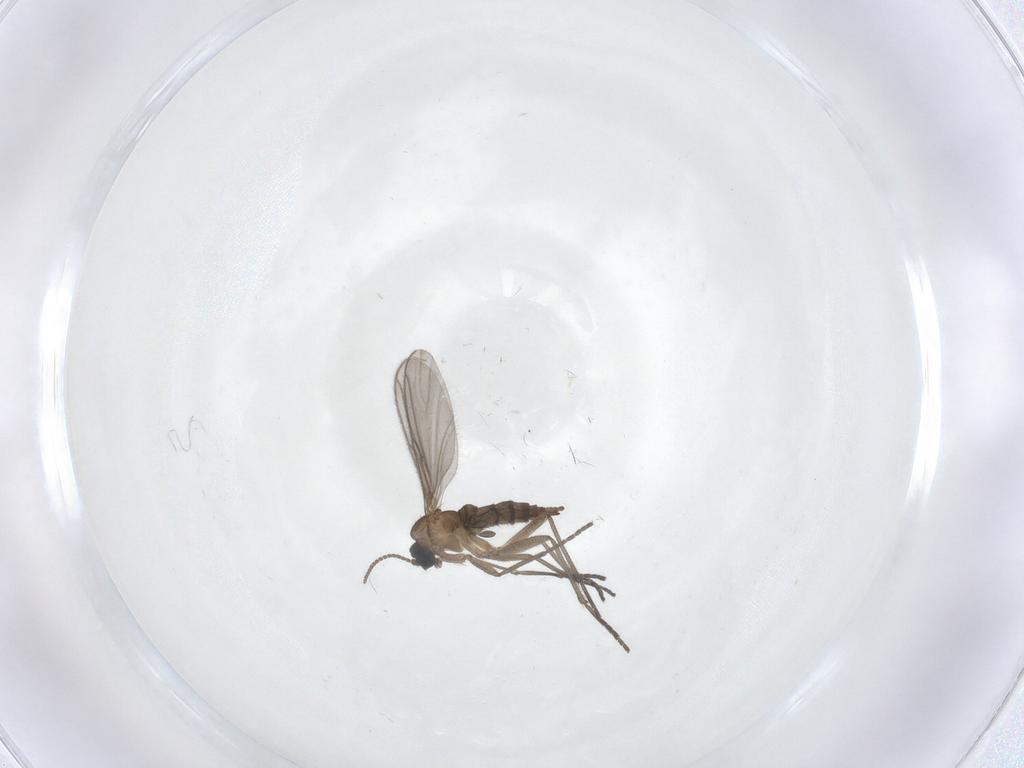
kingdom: Animalia
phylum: Arthropoda
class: Insecta
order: Diptera
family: Sciaridae
